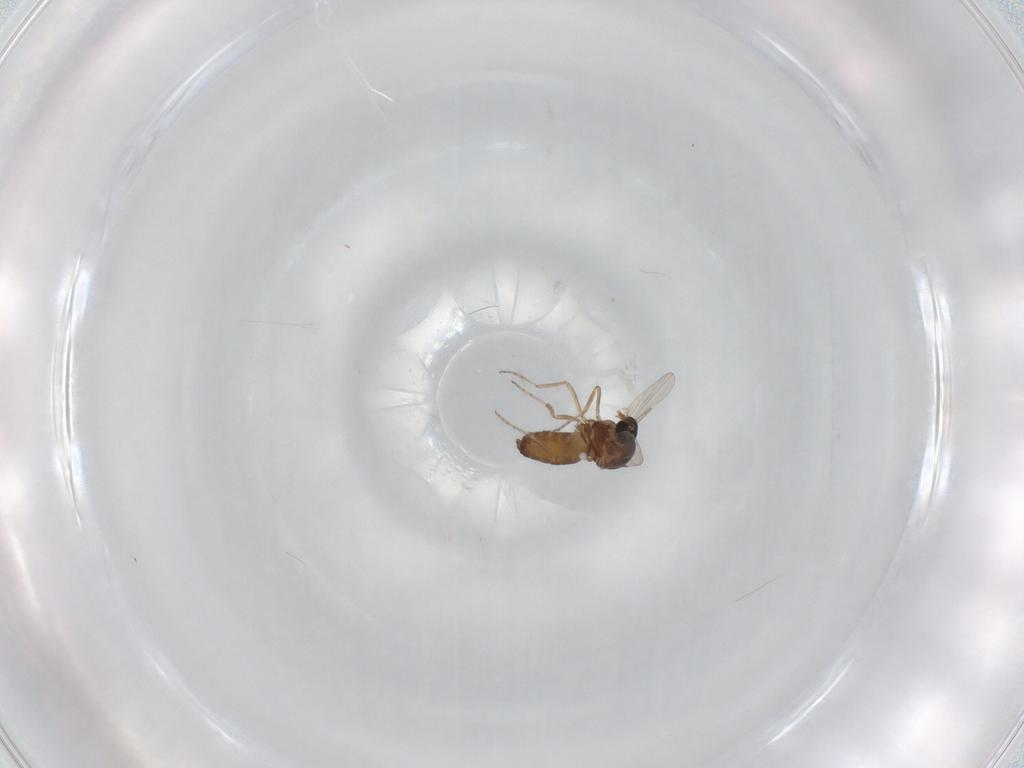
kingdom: Animalia
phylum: Arthropoda
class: Insecta
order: Diptera
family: Ceratopogonidae
